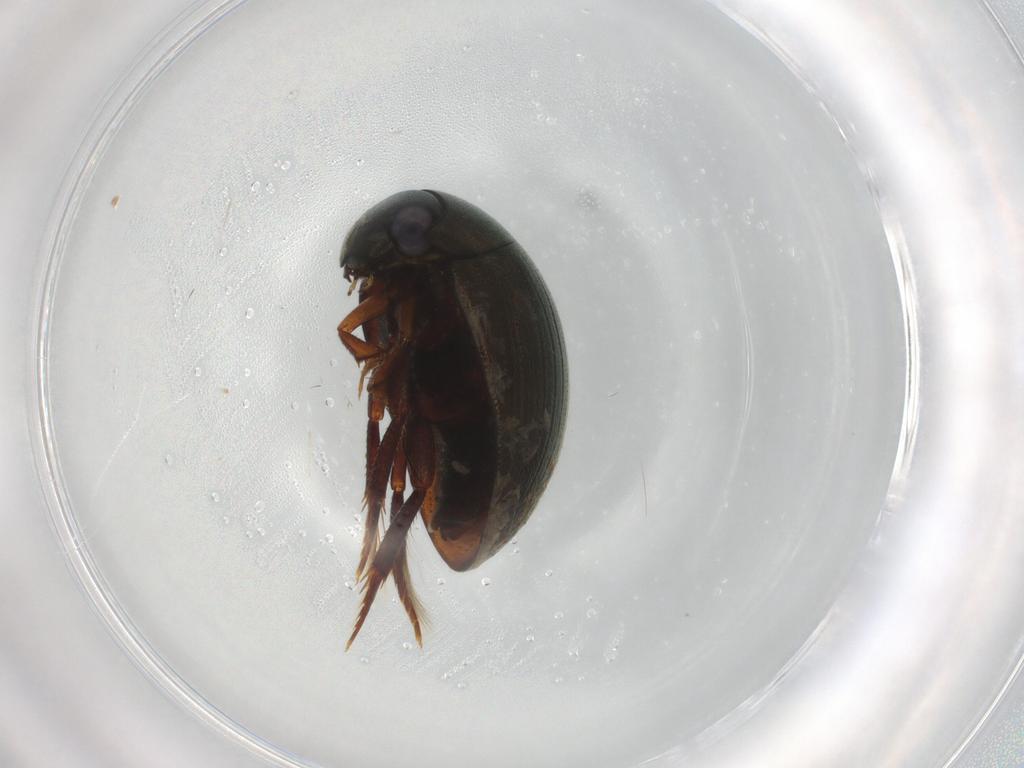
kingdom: Animalia
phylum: Arthropoda
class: Insecta
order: Coleoptera
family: Hydrophilidae
